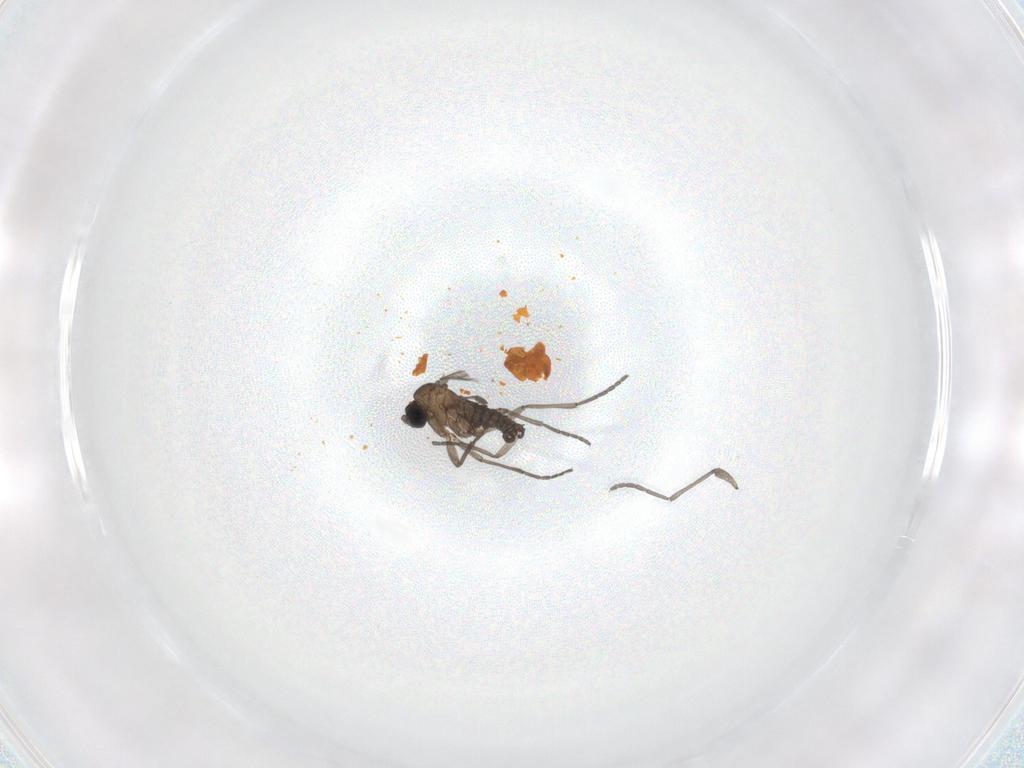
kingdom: Animalia
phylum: Arthropoda
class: Insecta
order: Diptera
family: Sciaridae
